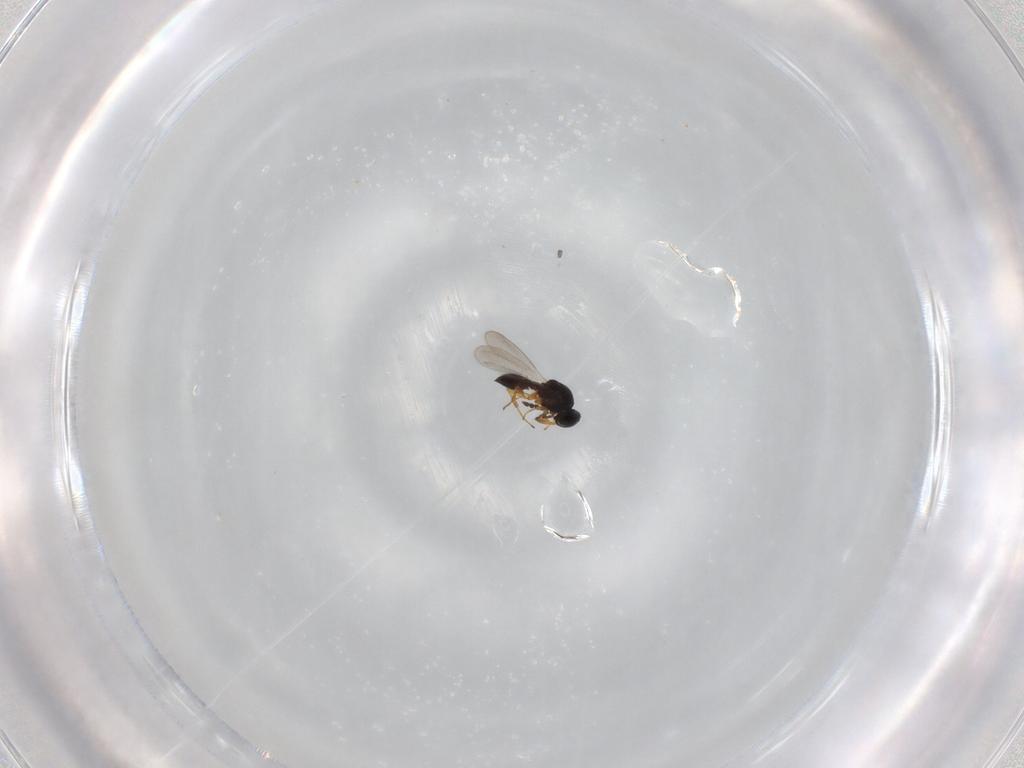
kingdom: Animalia
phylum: Arthropoda
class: Insecta
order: Hymenoptera
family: Platygastridae
